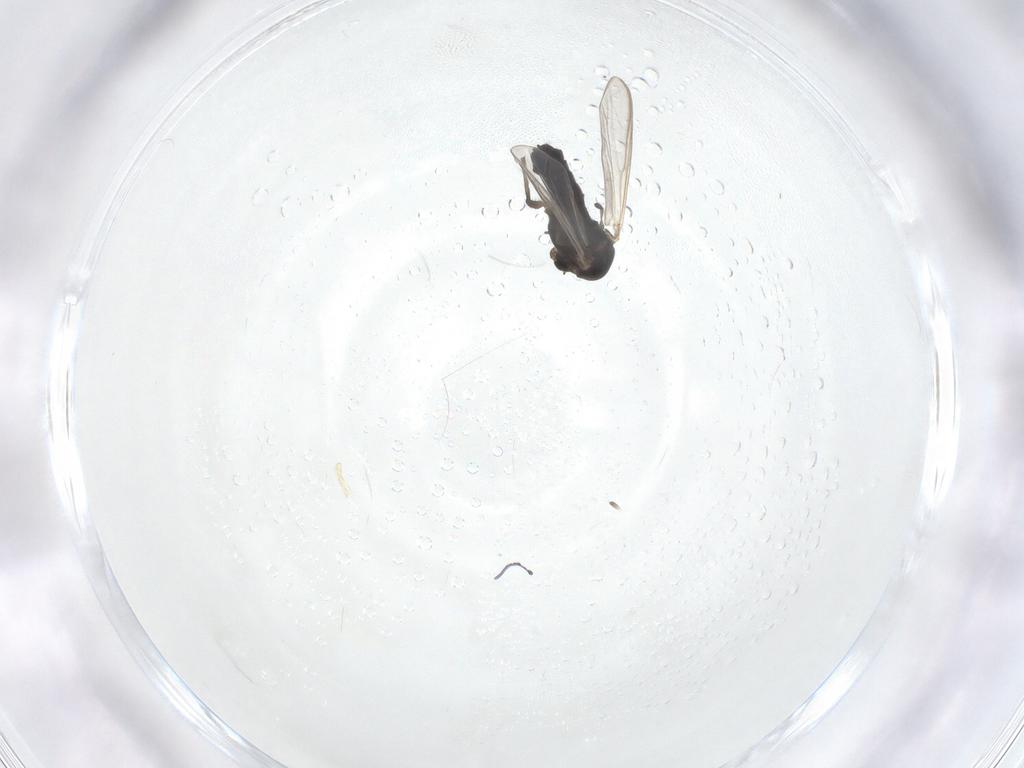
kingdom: Animalia
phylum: Arthropoda
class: Insecta
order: Diptera
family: Chironomidae
